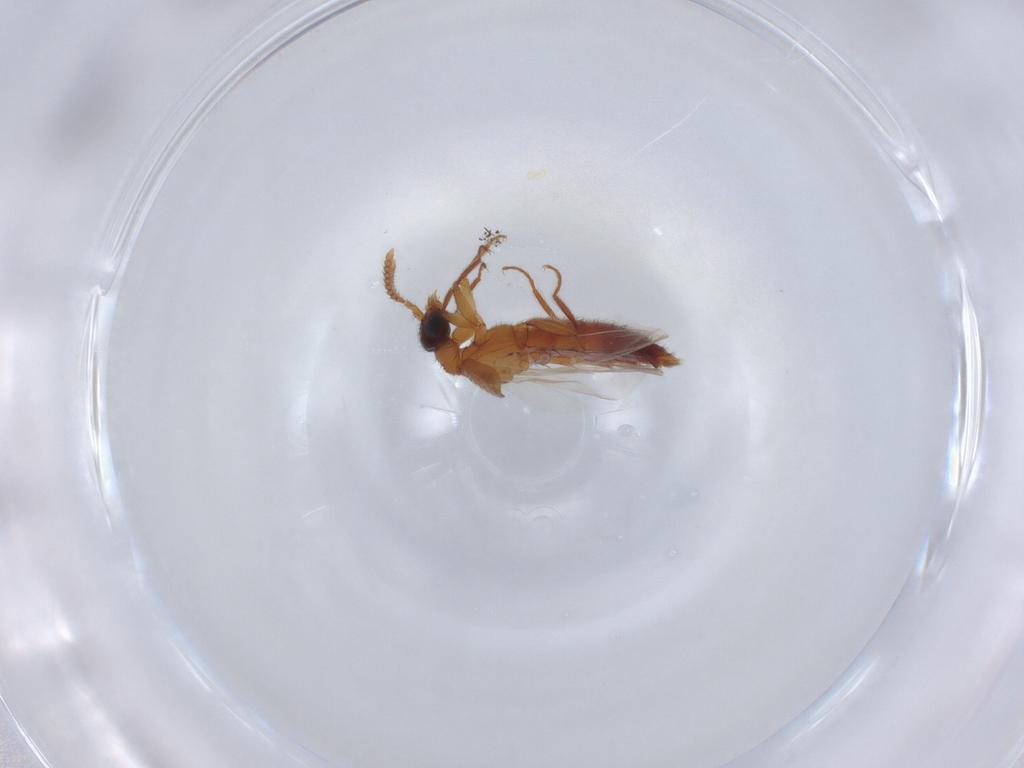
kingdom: Animalia
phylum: Arthropoda
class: Insecta
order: Coleoptera
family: Staphylinidae
